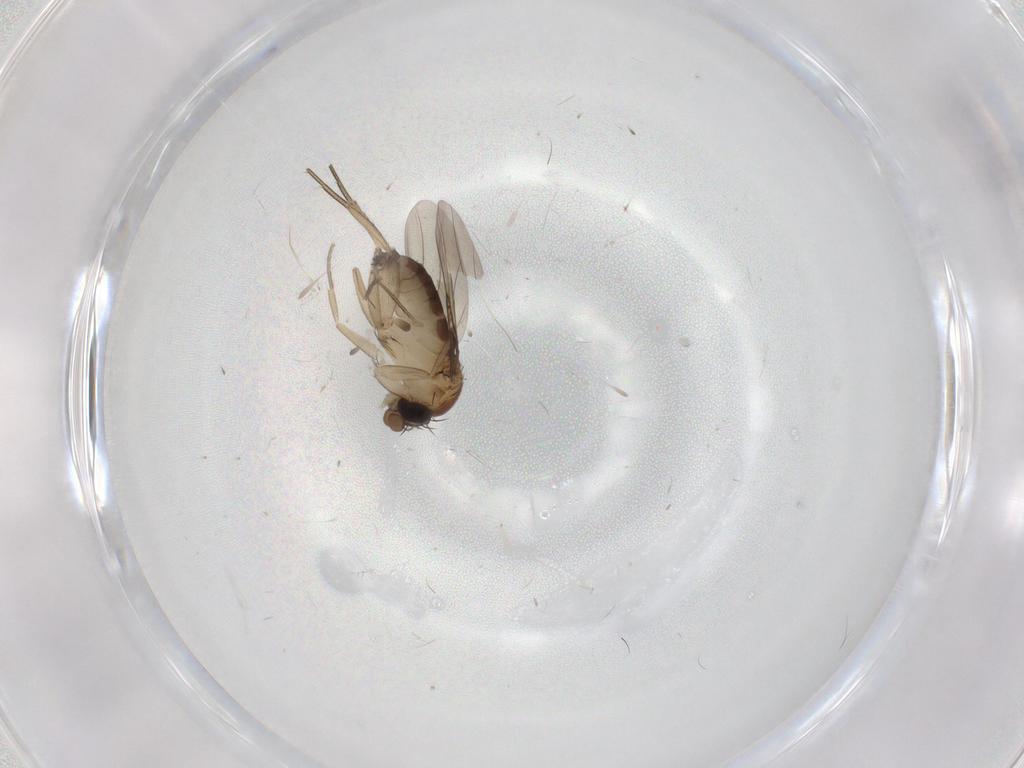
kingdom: Animalia
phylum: Arthropoda
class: Insecta
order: Diptera
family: Phoridae
